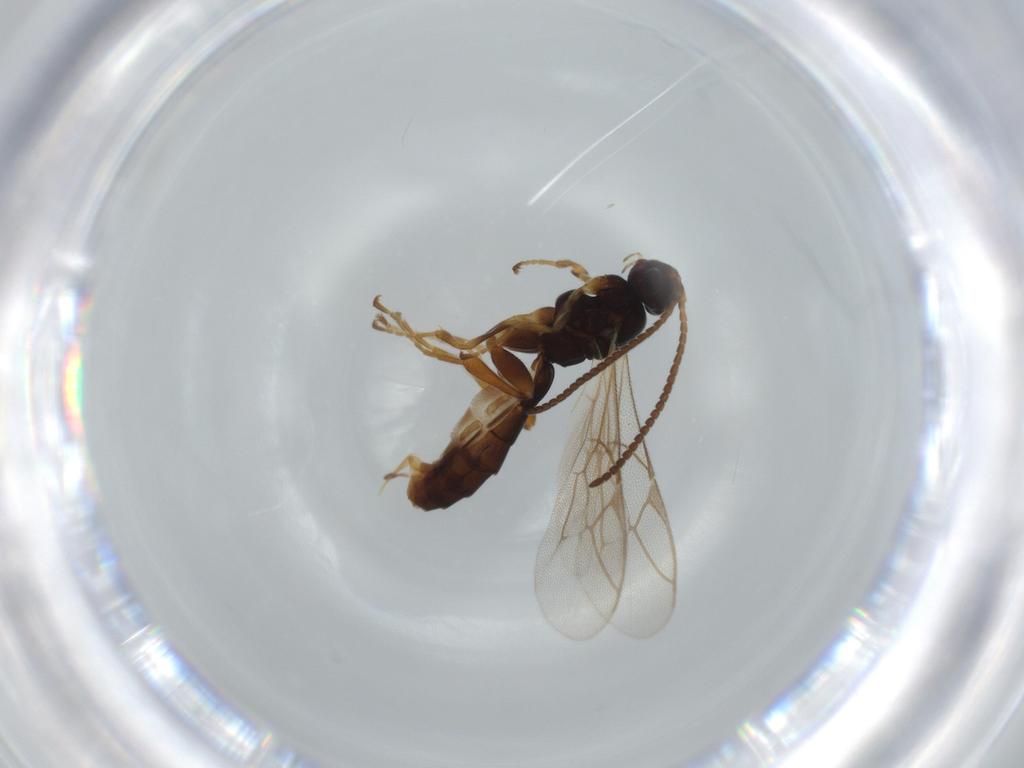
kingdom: Animalia
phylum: Arthropoda
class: Insecta
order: Hymenoptera
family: Ichneumonidae
